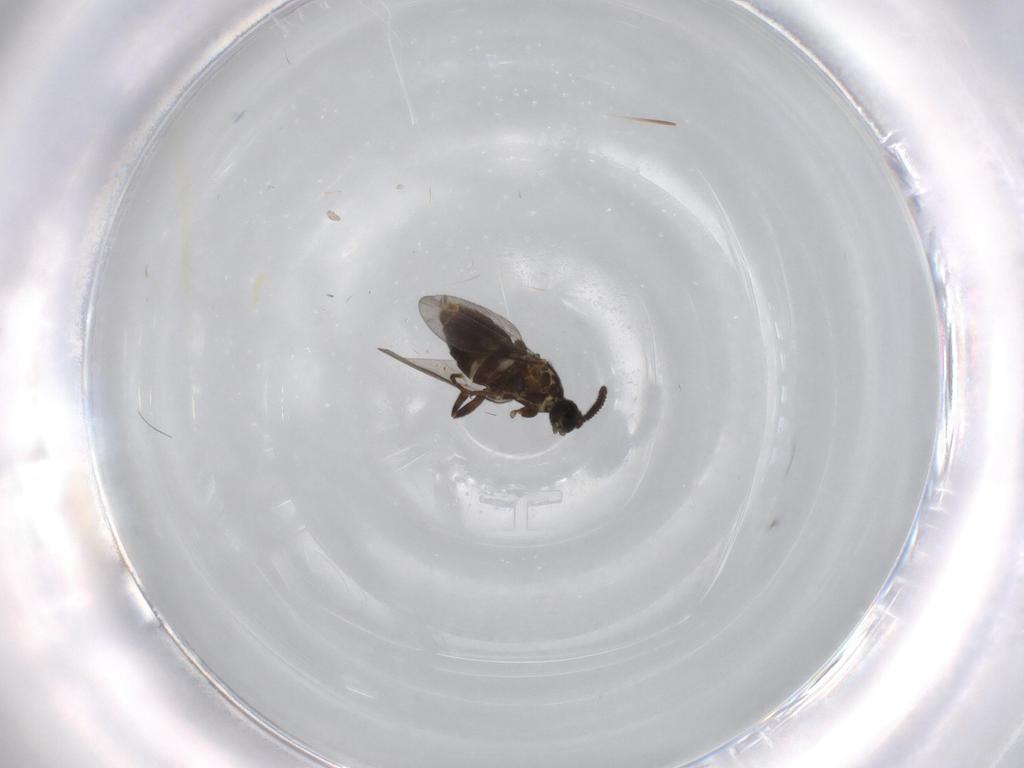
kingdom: Animalia
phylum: Arthropoda
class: Insecta
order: Diptera
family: Scatopsidae
